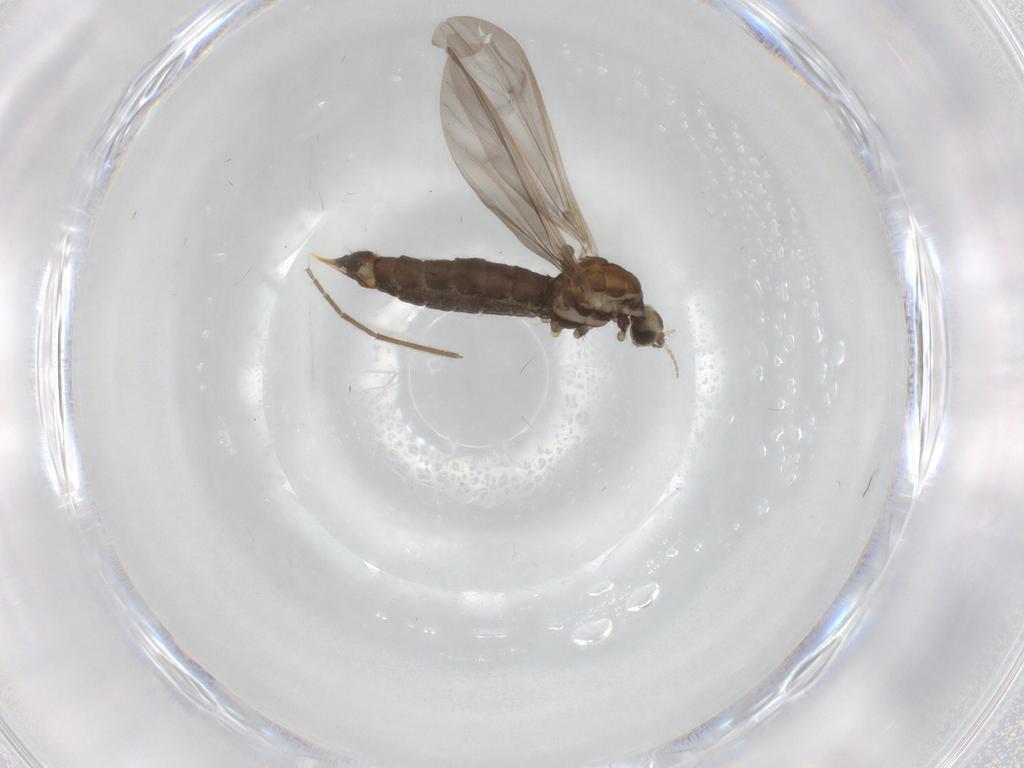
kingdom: Animalia
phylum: Arthropoda
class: Insecta
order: Diptera
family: Limoniidae
